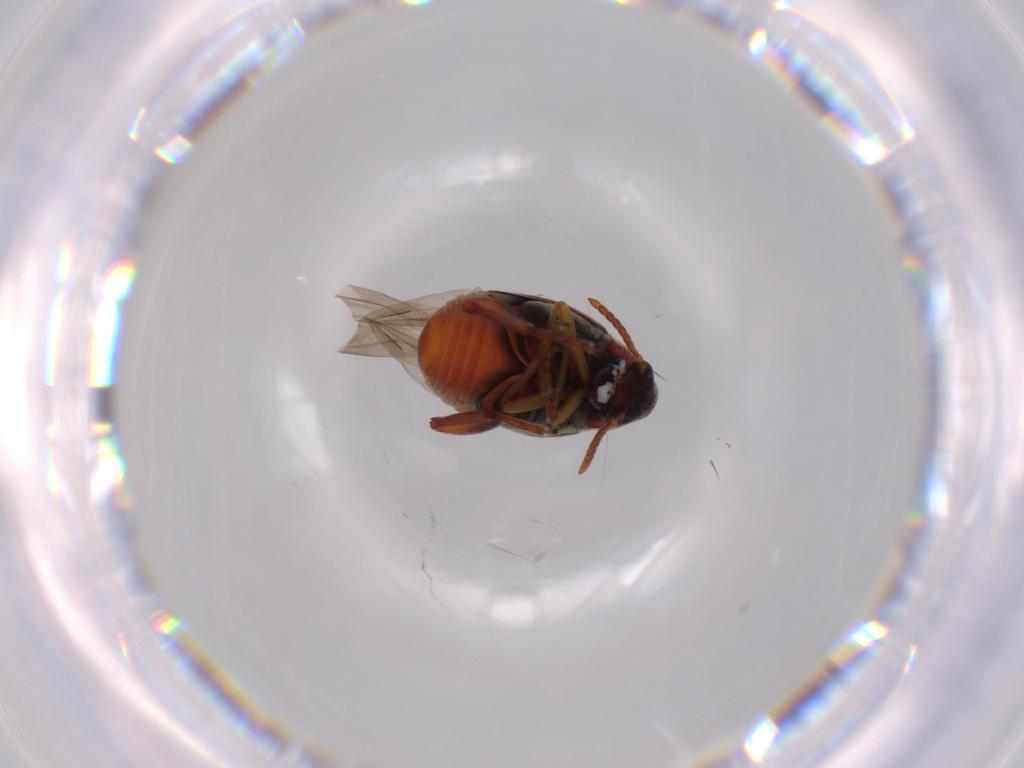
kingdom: Animalia
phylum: Arthropoda
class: Insecta
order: Coleoptera
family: Chrysomelidae
